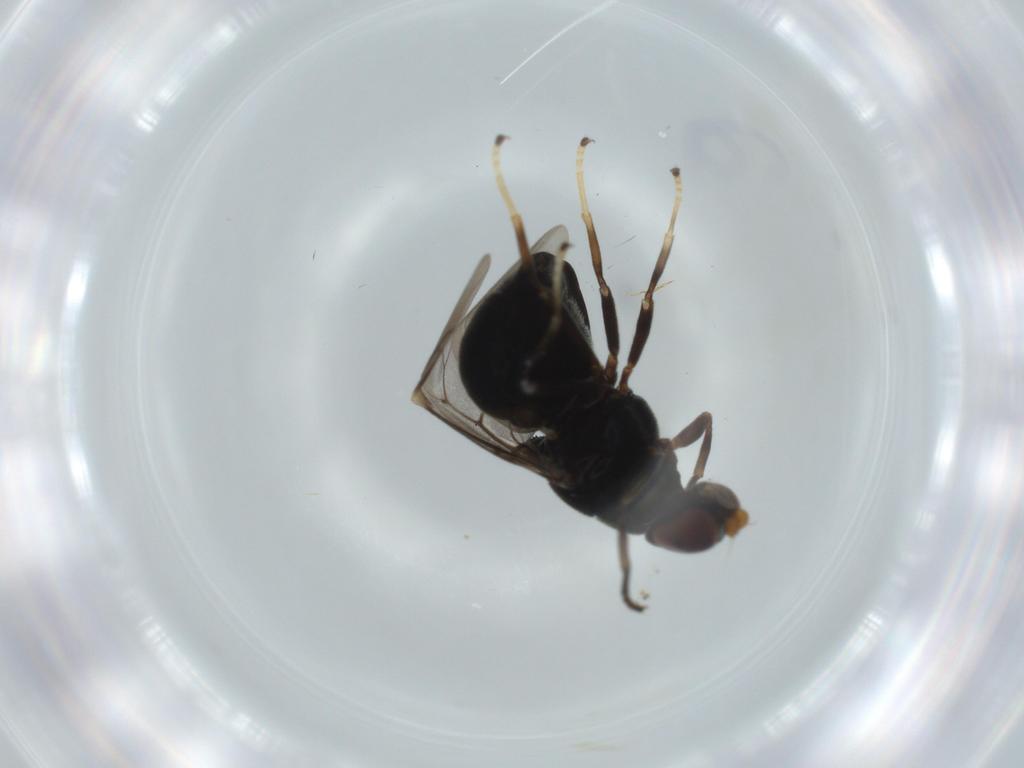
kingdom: Animalia
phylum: Arthropoda
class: Insecta
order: Diptera
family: Stratiomyidae
